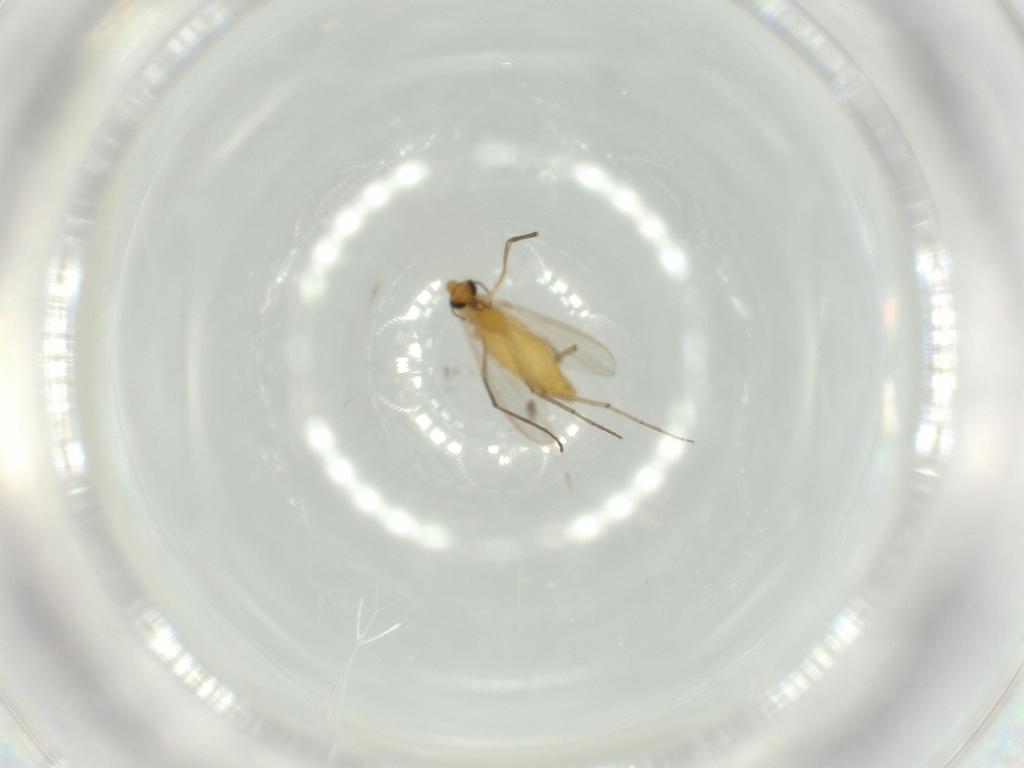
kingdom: Animalia
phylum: Arthropoda
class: Insecta
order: Diptera
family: Chironomidae
